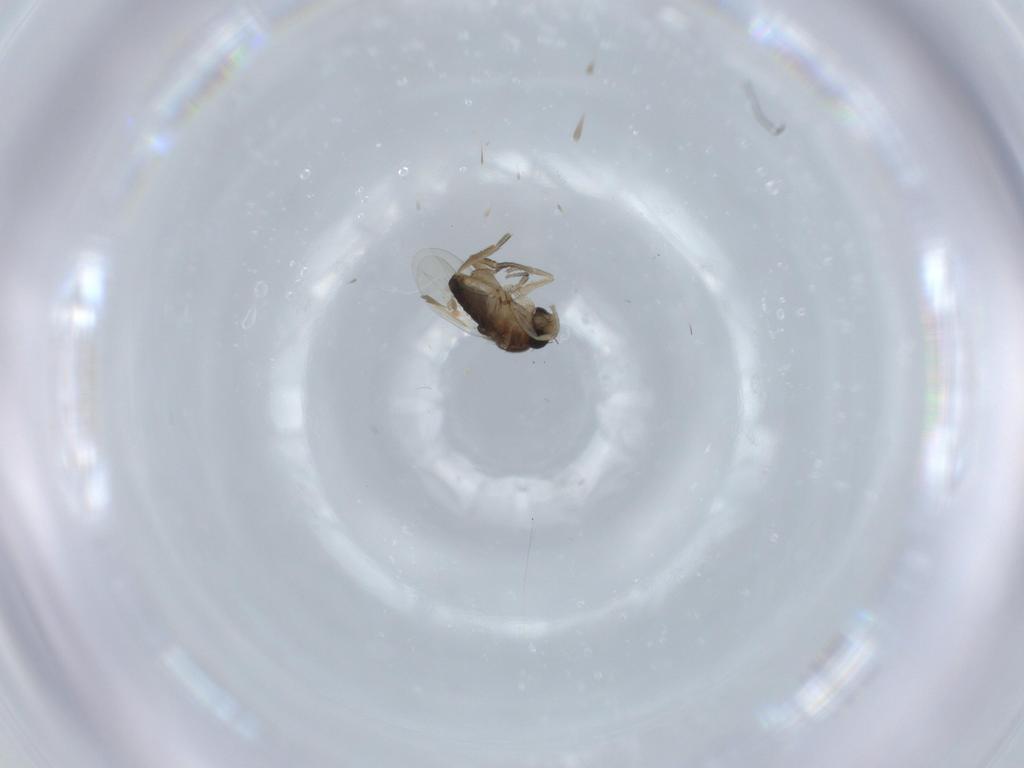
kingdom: Animalia
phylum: Arthropoda
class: Insecta
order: Diptera
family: Phoridae
